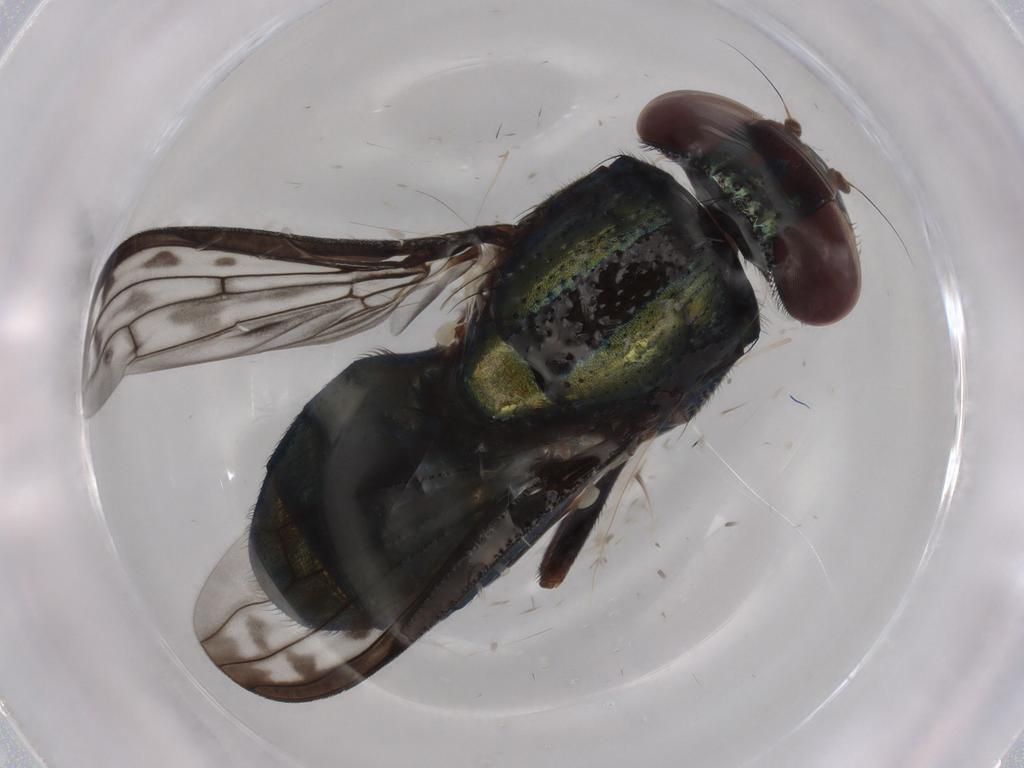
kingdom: Animalia
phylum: Arthropoda
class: Insecta
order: Diptera
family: Ulidiidae
